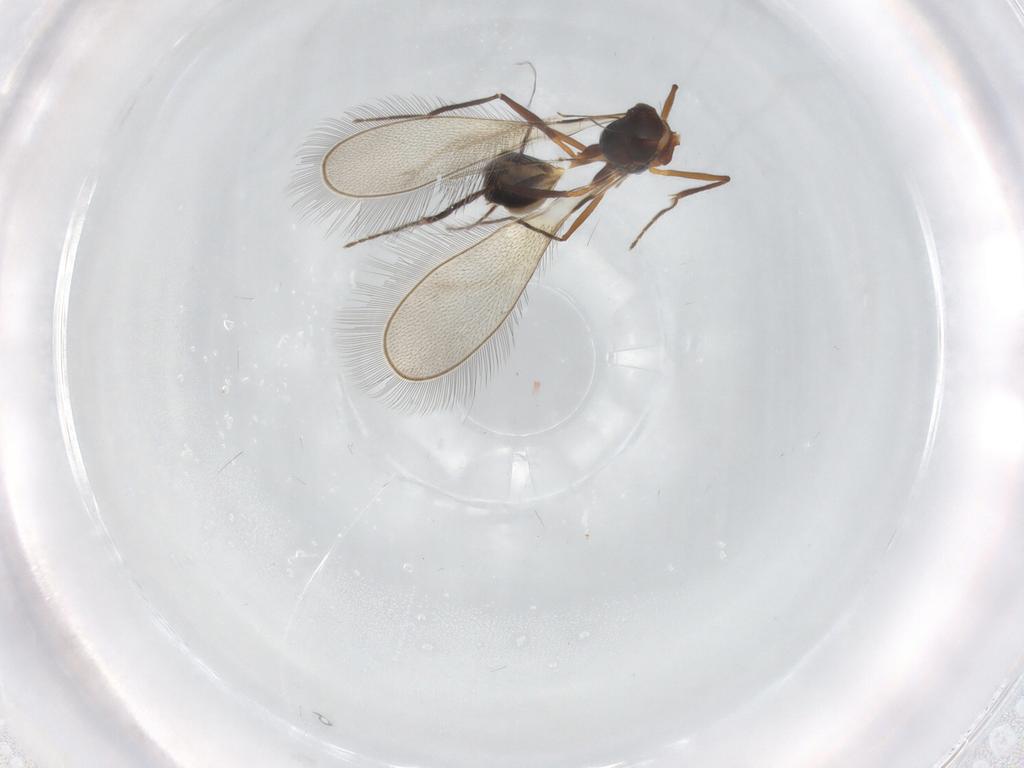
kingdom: Animalia
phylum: Arthropoda
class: Insecta
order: Hymenoptera
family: Mymaridae
